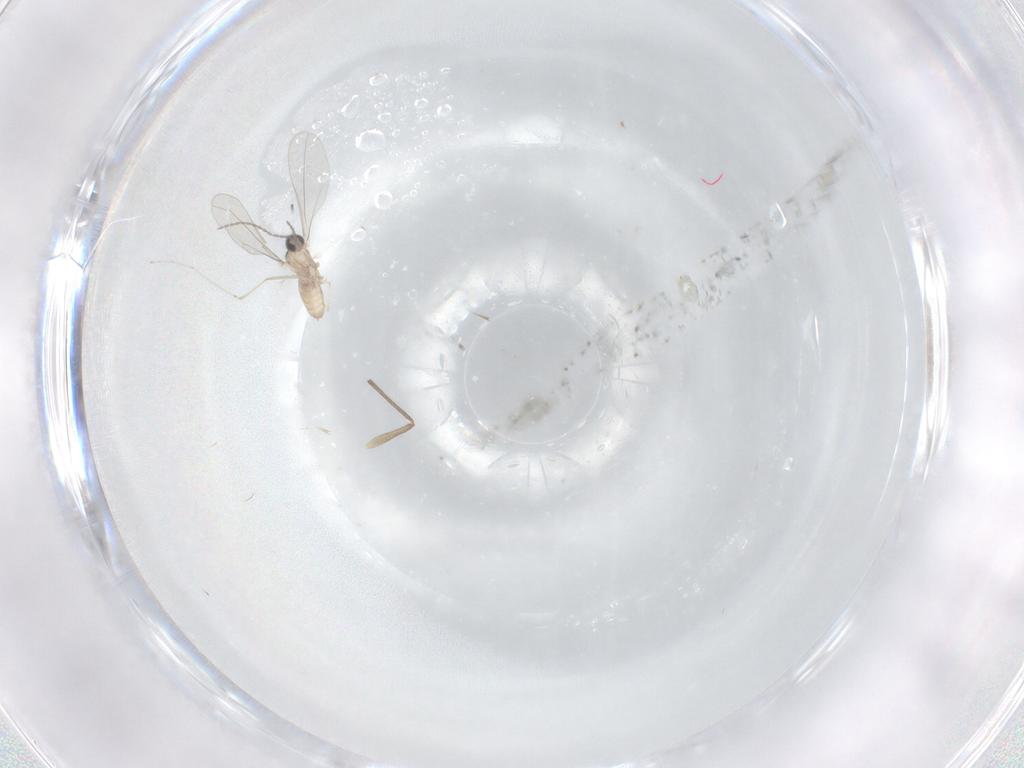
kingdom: Animalia
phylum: Arthropoda
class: Insecta
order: Diptera
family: Cecidomyiidae
